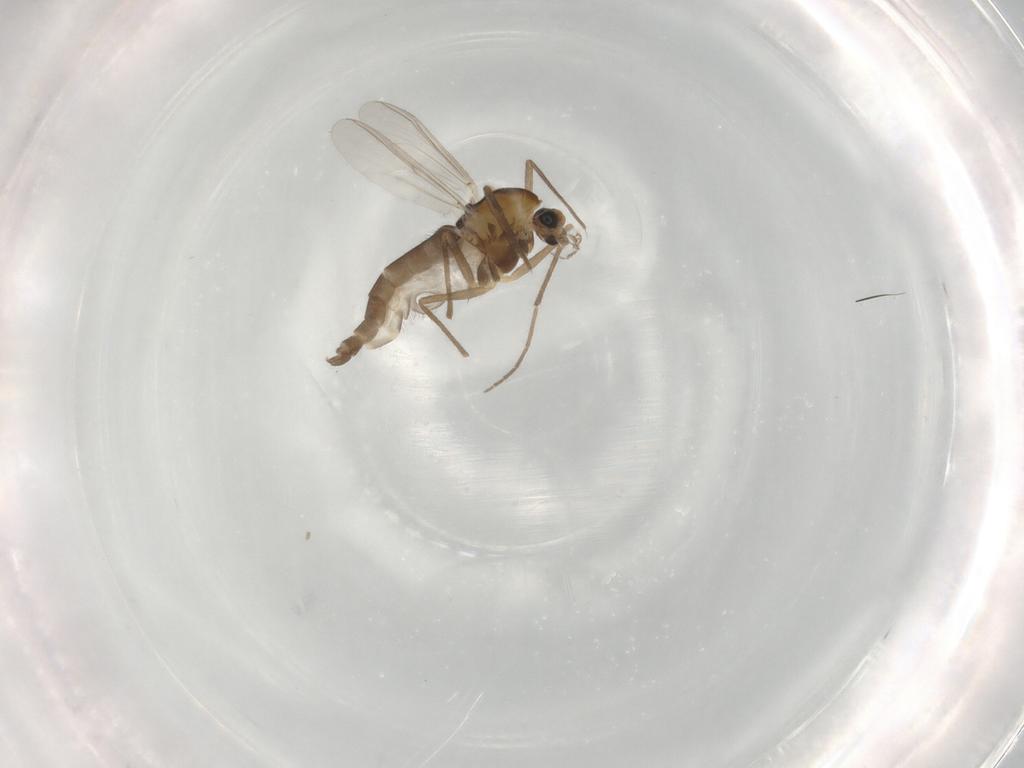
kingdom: Animalia
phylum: Arthropoda
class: Insecta
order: Diptera
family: Chironomidae
